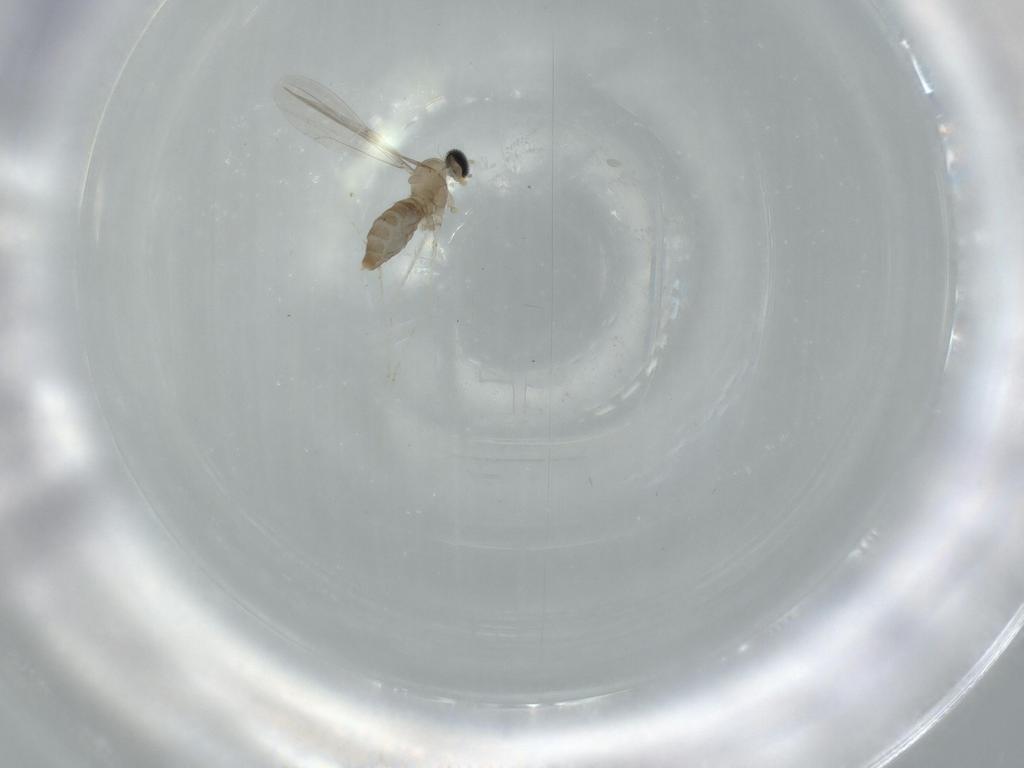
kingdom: Animalia
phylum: Arthropoda
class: Insecta
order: Diptera
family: Cecidomyiidae
